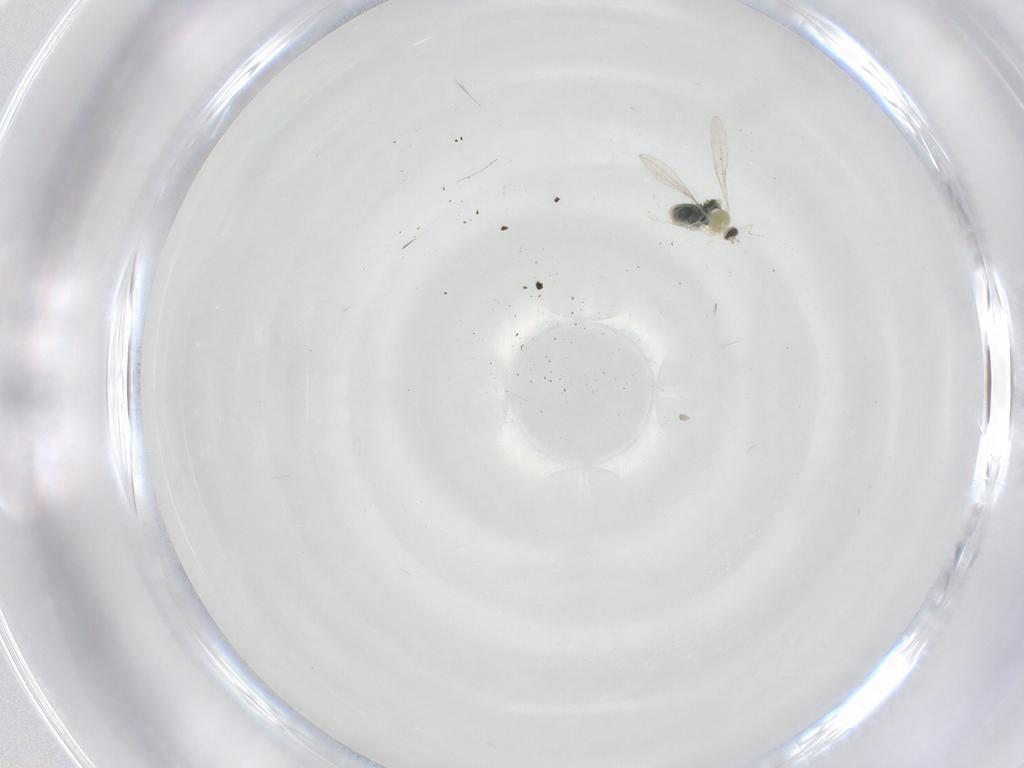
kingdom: Animalia
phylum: Arthropoda
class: Insecta
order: Diptera
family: Cecidomyiidae
